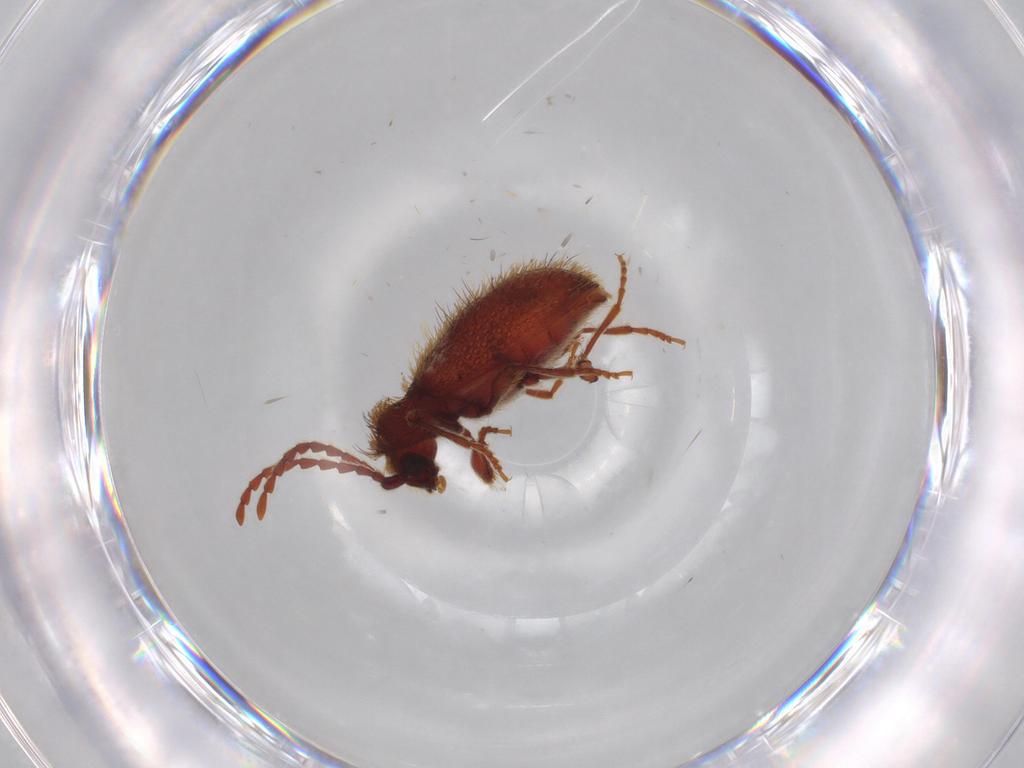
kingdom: Animalia
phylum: Arthropoda
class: Insecta
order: Coleoptera
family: Ptinidae
